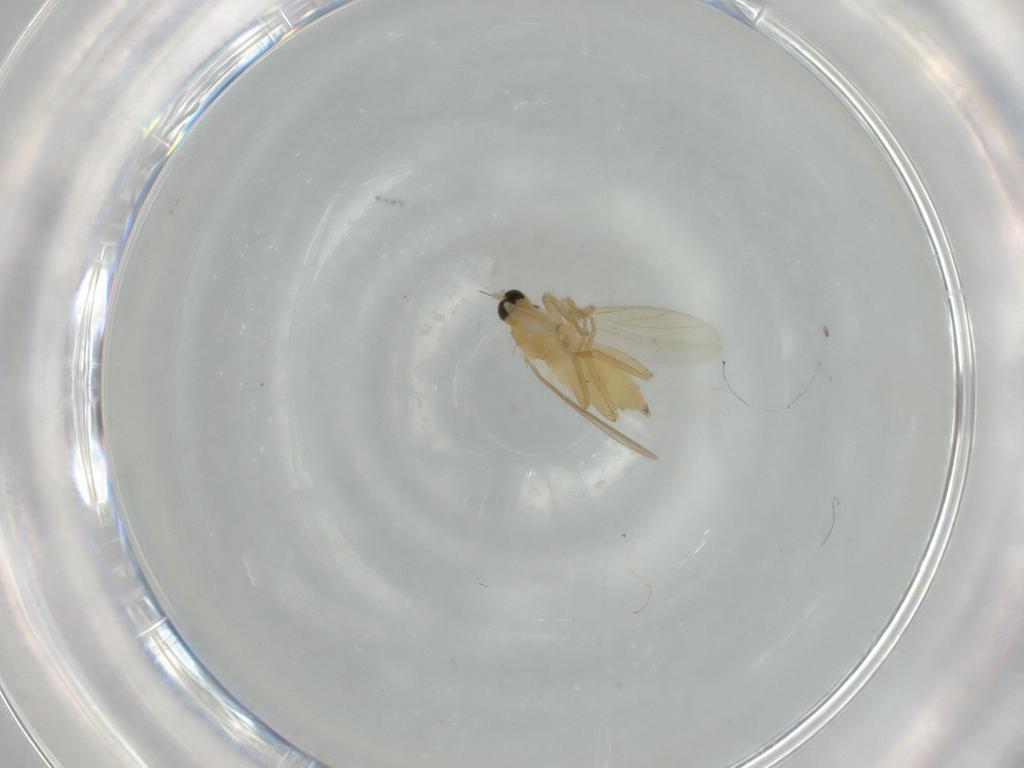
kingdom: Animalia
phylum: Arthropoda
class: Insecta
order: Diptera
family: Hybotidae
